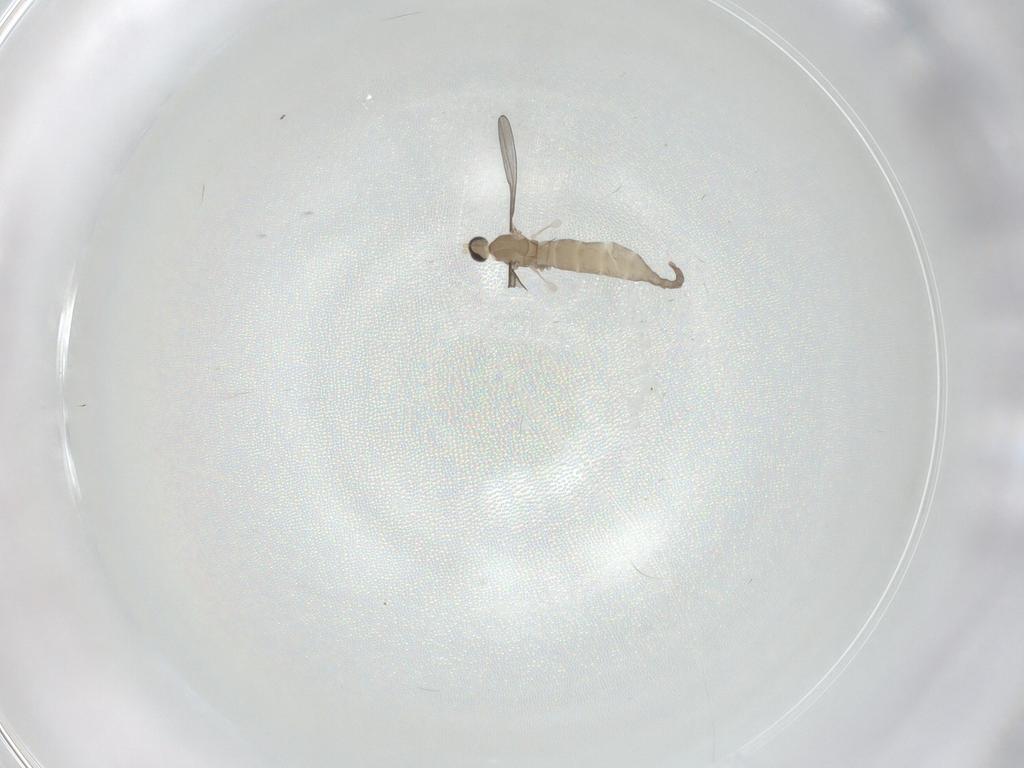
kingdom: Animalia
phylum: Arthropoda
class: Insecta
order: Diptera
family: Cecidomyiidae
